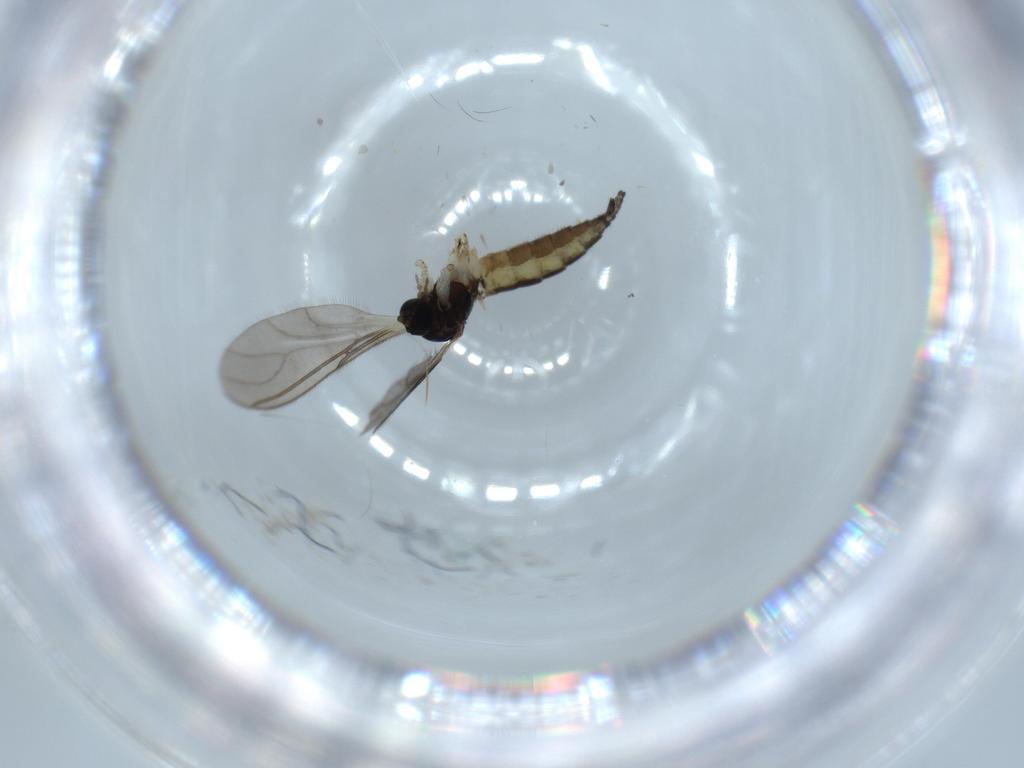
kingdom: Animalia
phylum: Arthropoda
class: Insecta
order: Diptera
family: Sciaridae
